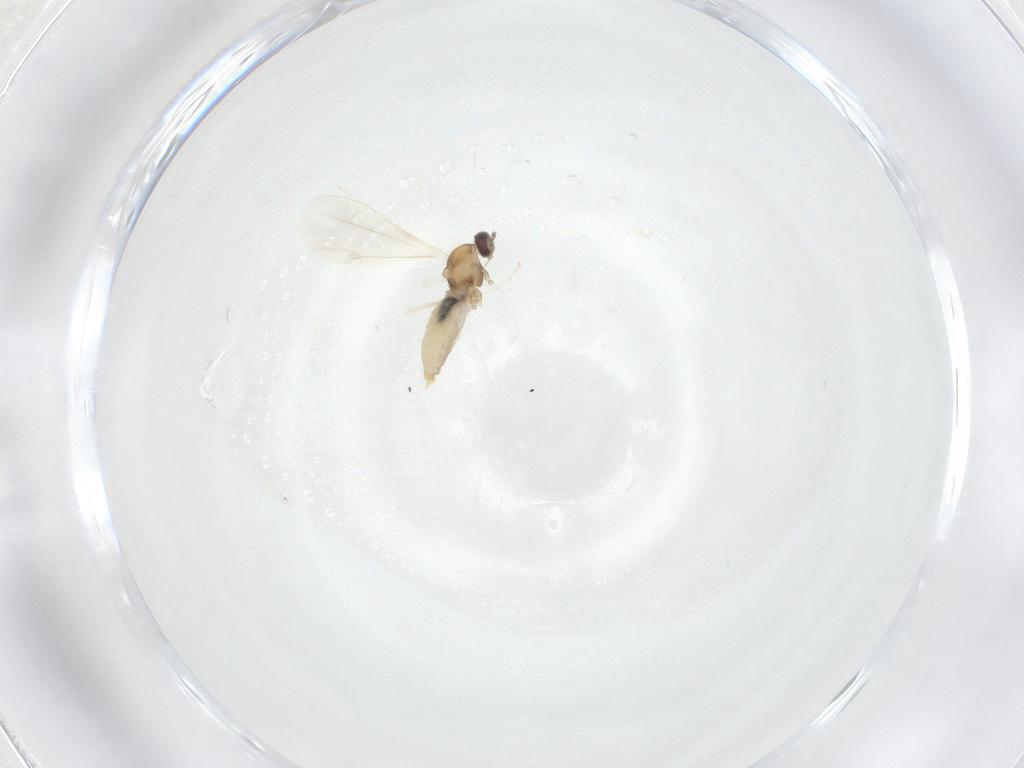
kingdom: Animalia
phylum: Arthropoda
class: Insecta
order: Diptera
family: Cecidomyiidae
